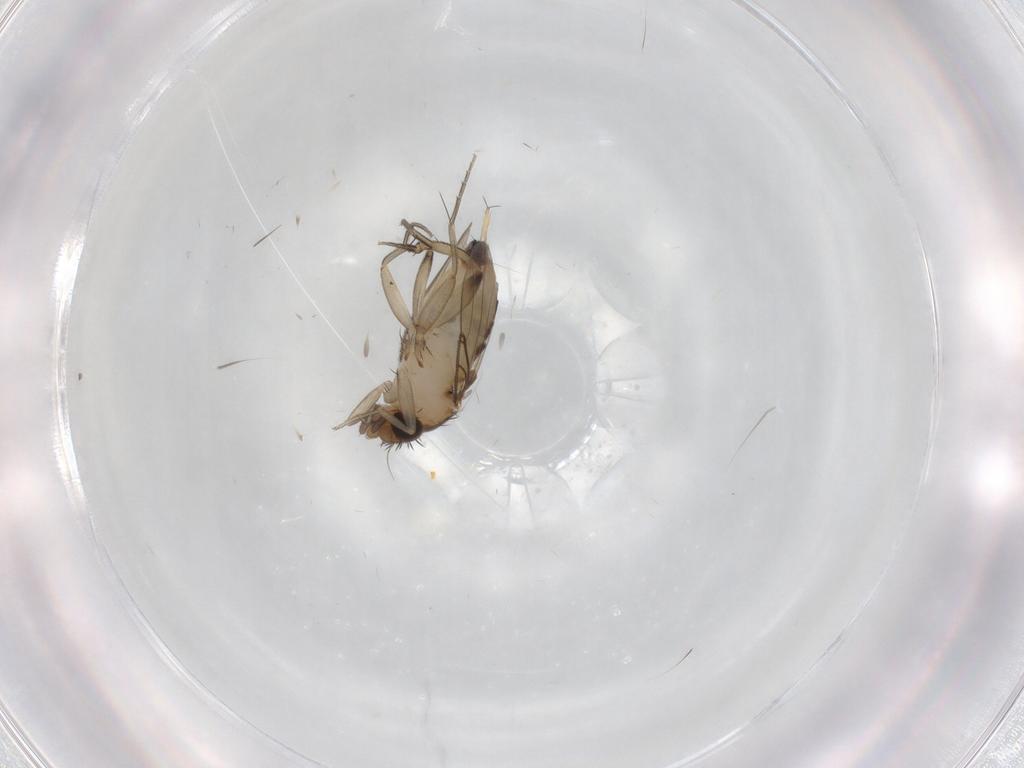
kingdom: Animalia
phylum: Arthropoda
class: Insecta
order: Diptera
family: Phoridae
